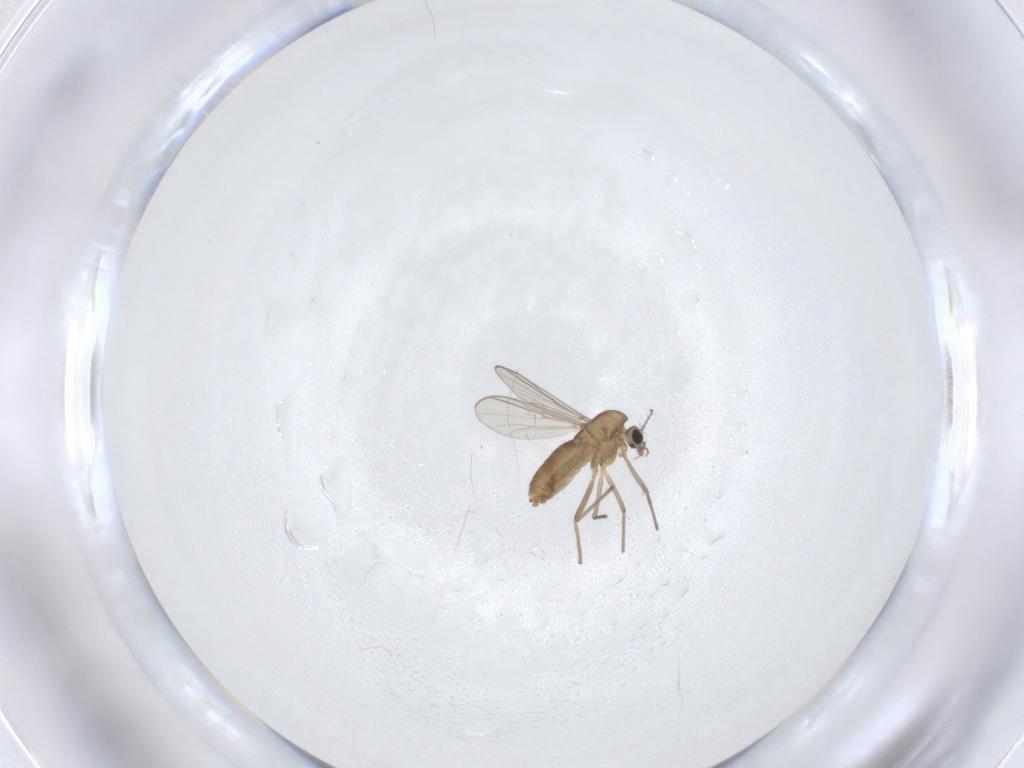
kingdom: Animalia
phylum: Arthropoda
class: Insecta
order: Diptera
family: Chironomidae
